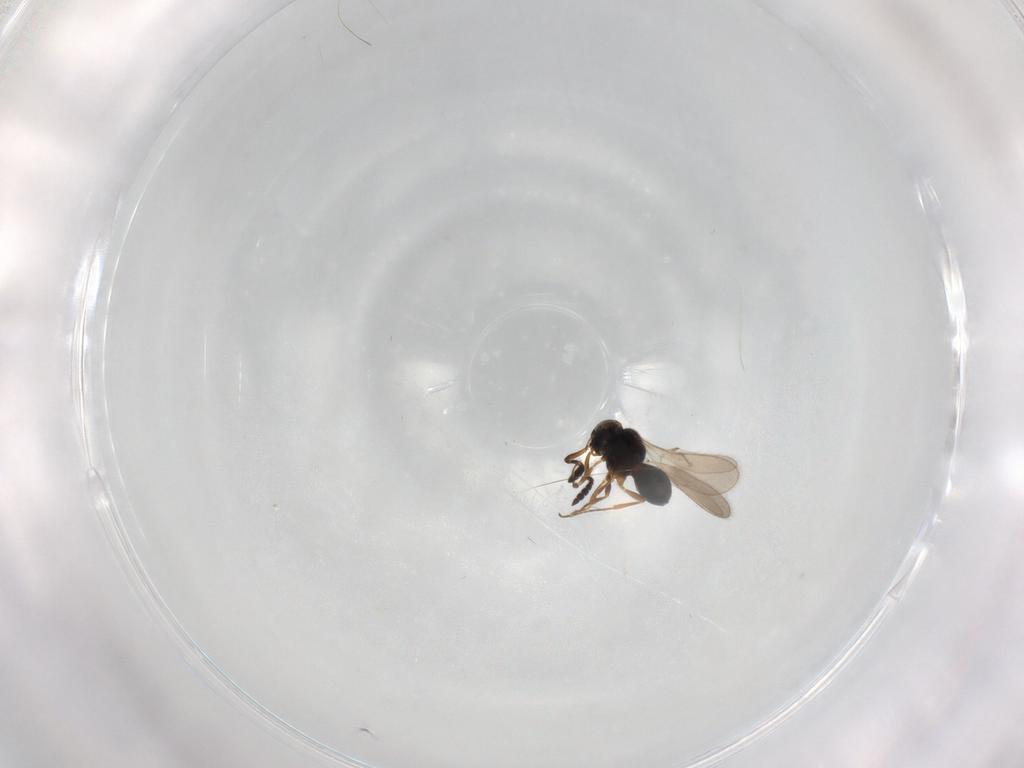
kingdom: Animalia
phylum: Arthropoda
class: Insecta
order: Hymenoptera
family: Scelionidae
